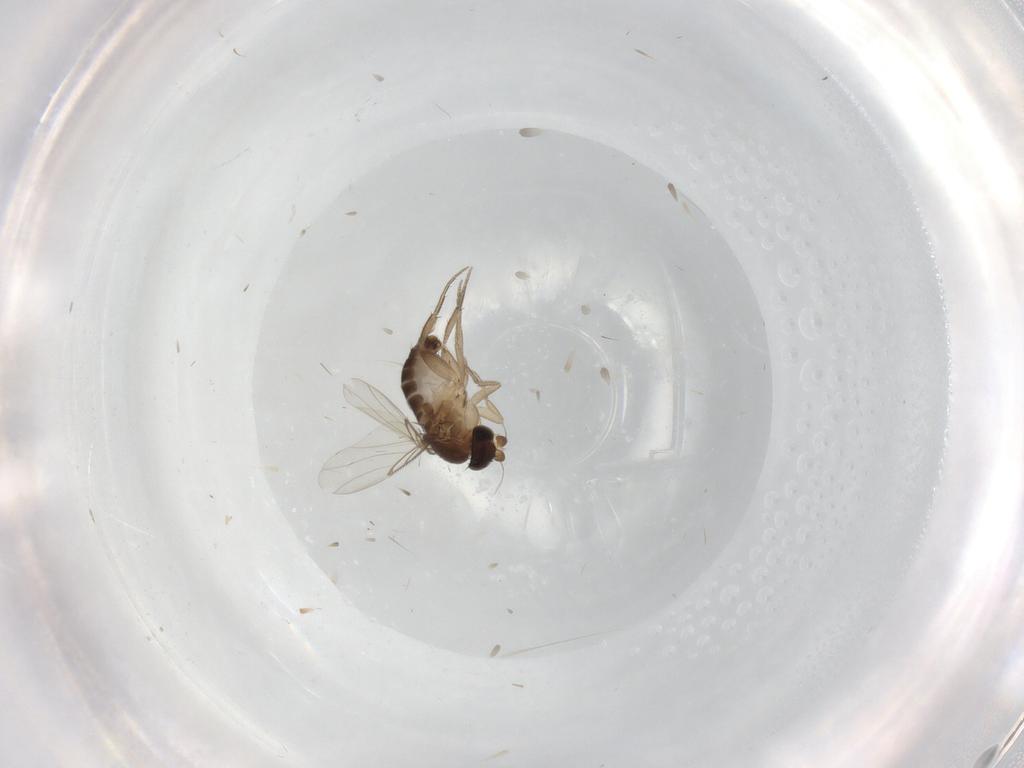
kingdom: Animalia
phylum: Arthropoda
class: Insecta
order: Diptera
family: Phoridae
